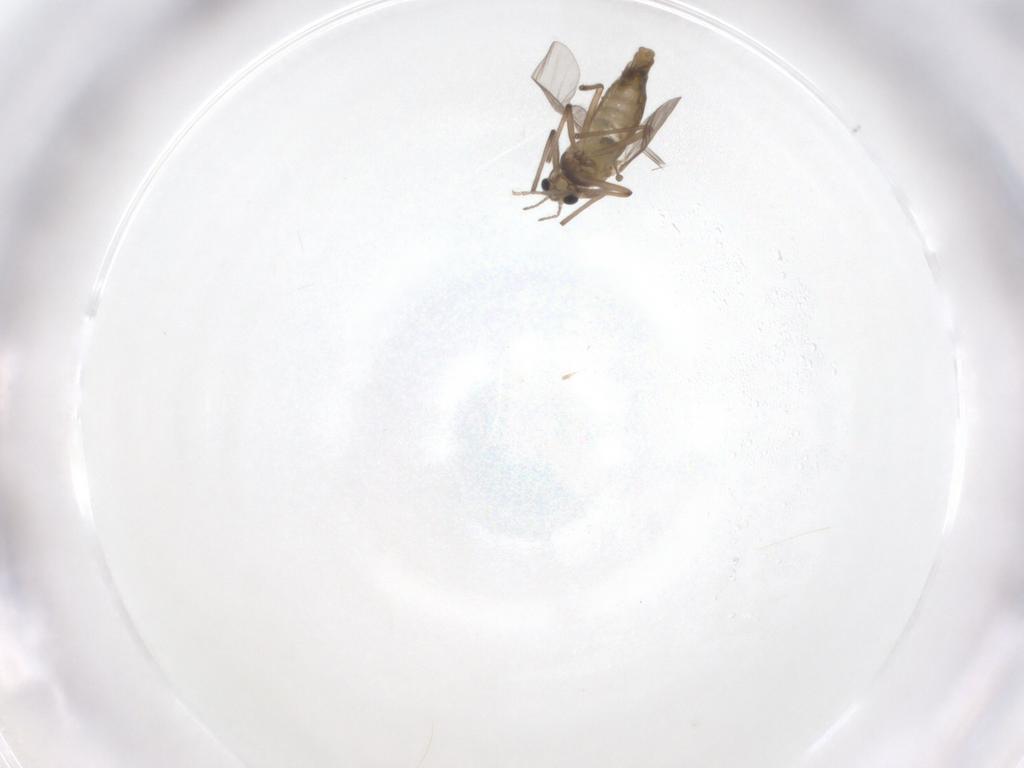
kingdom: Animalia
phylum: Arthropoda
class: Insecta
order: Diptera
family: Chironomidae
